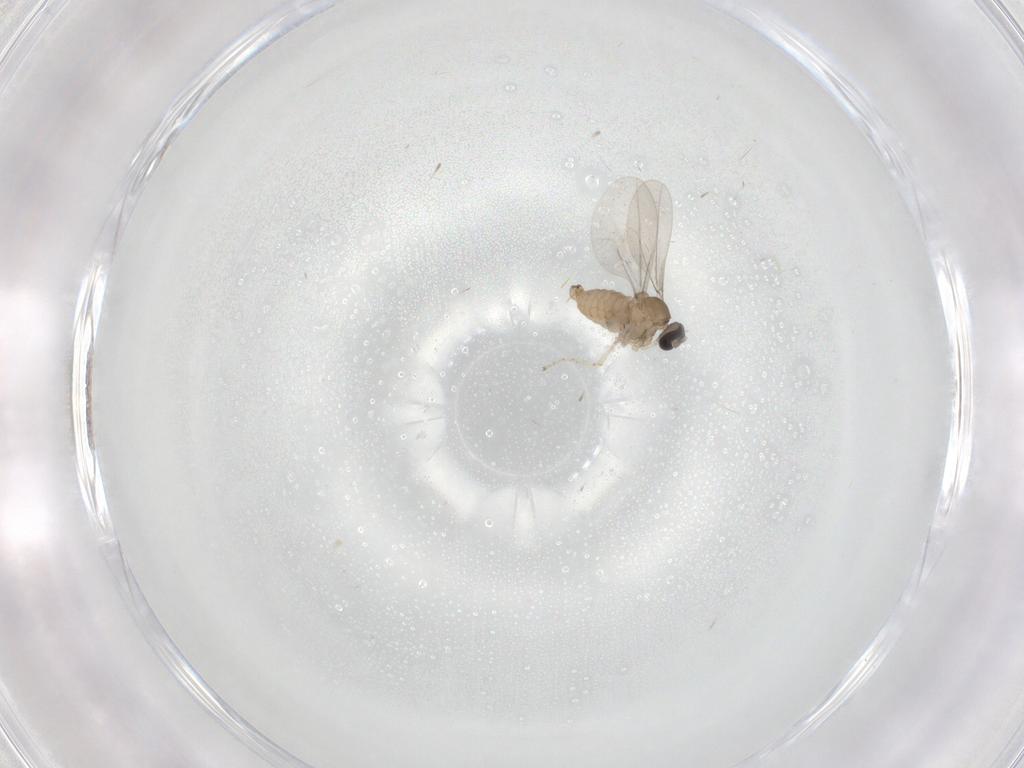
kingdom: Animalia
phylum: Arthropoda
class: Insecta
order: Diptera
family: Cecidomyiidae
